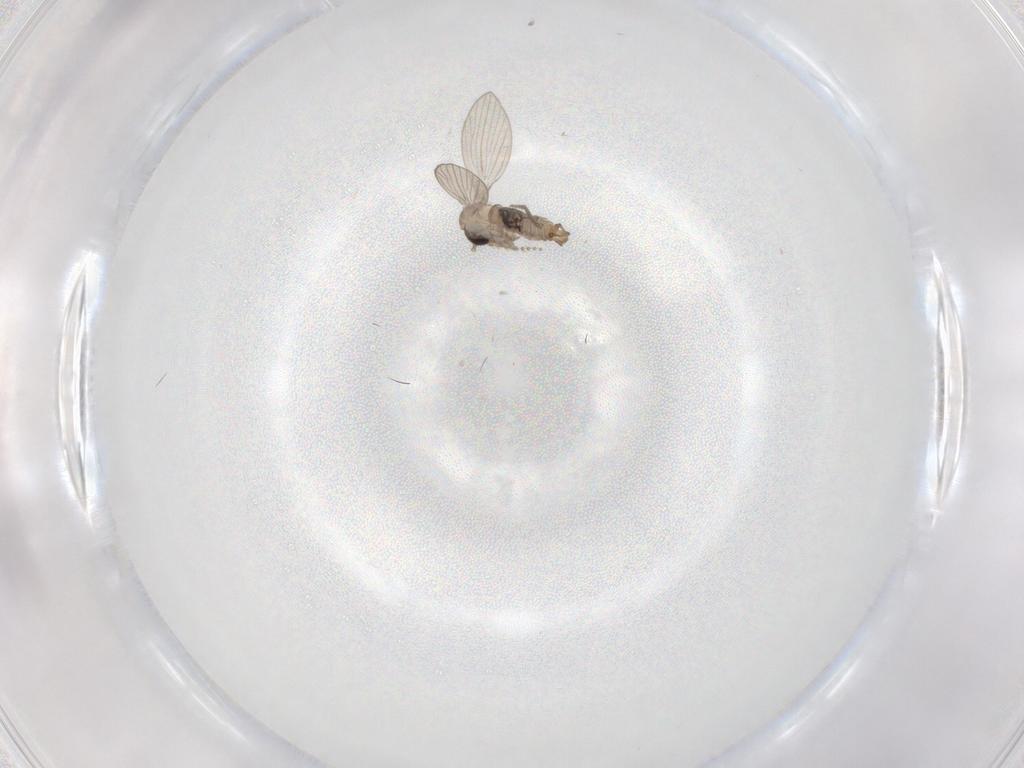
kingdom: Animalia
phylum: Arthropoda
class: Insecta
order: Diptera
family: Psychodidae
